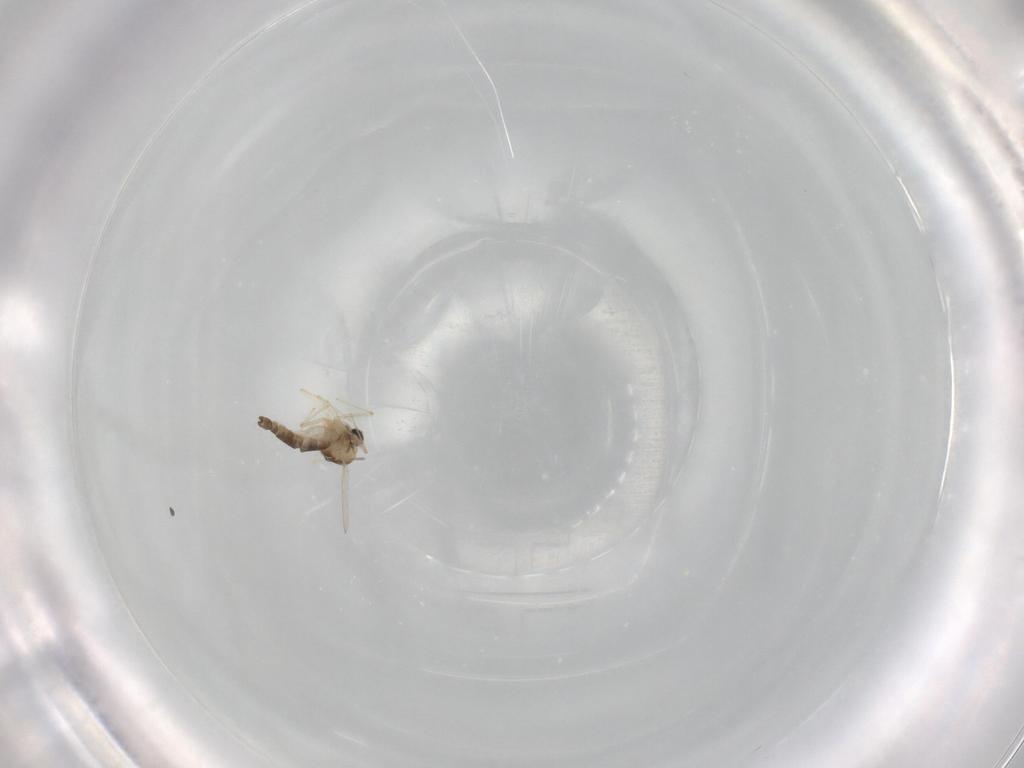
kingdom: Animalia
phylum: Arthropoda
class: Insecta
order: Diptera
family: Chironomidae
